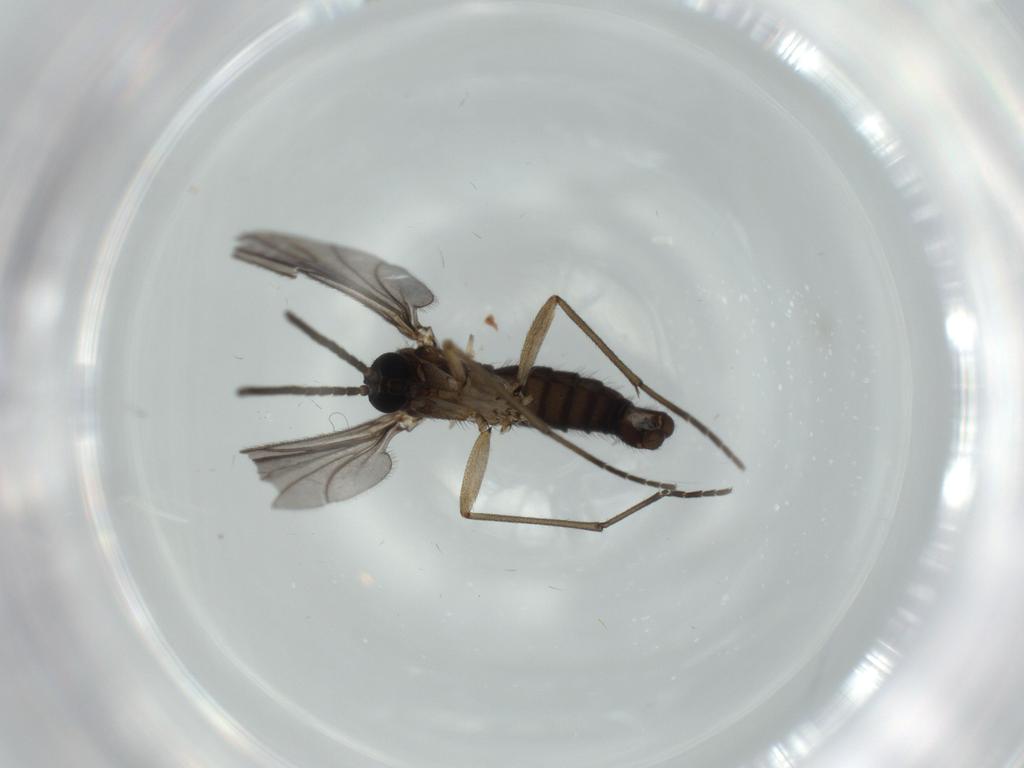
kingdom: Animalia
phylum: Arthropoda
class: Insecta
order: Diptera
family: Sciaridae
